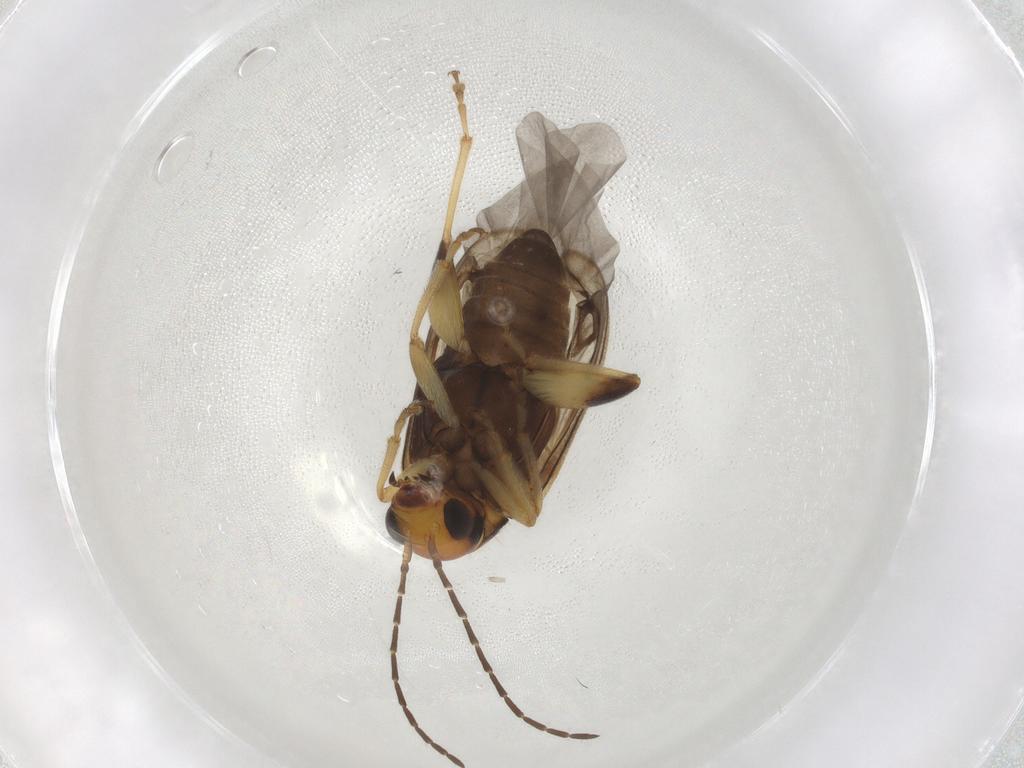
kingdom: Animalia
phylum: Arthropoda
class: Insecta
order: Coleoptera
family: Chrysomelidae
